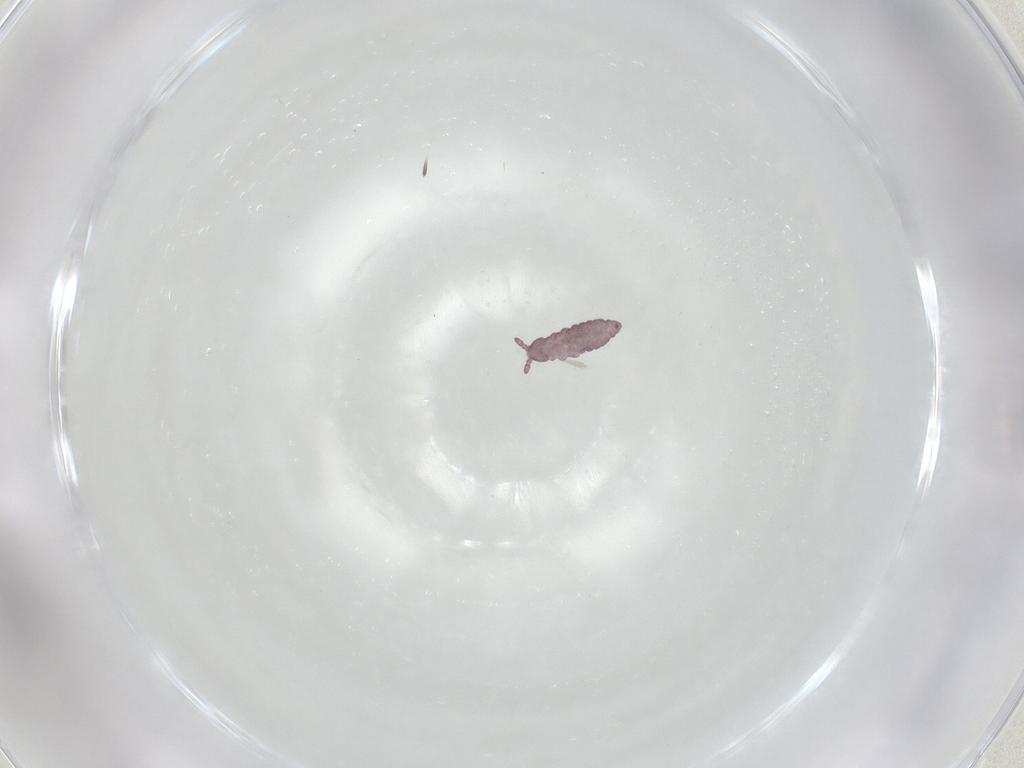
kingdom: Animalia
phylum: Arthropoda
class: Collembola
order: Poduromorpha
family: Hypogastruridae
